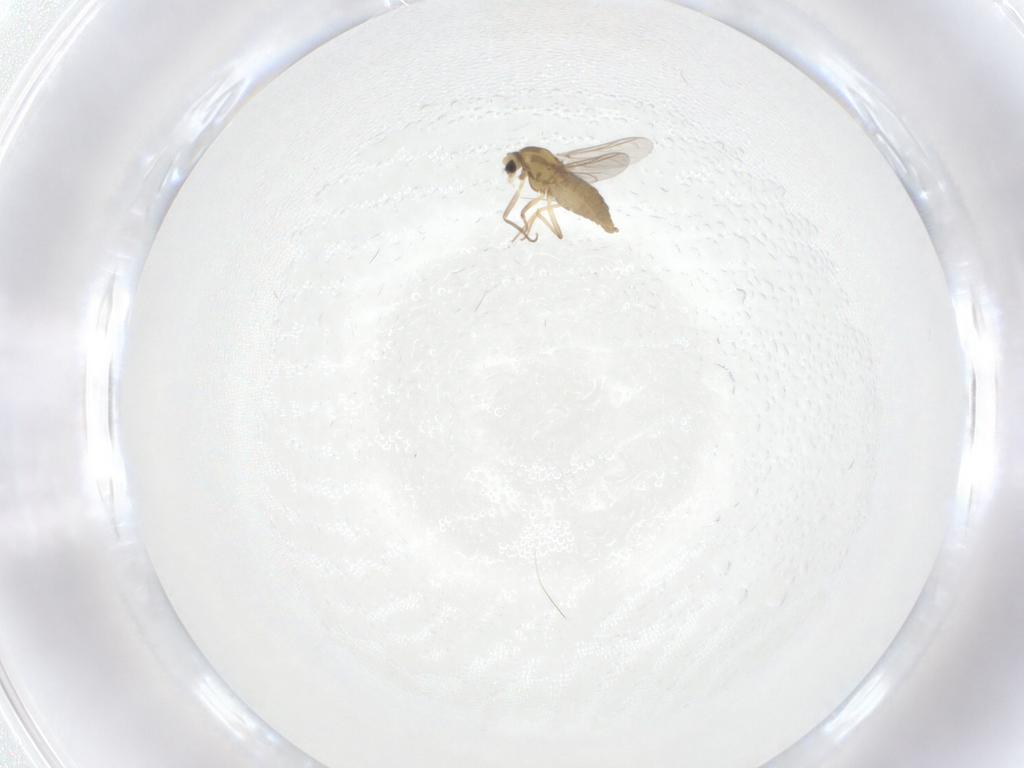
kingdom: Animalia
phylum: Arthropoda
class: Insecta
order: Diptera
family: Chironomidae
